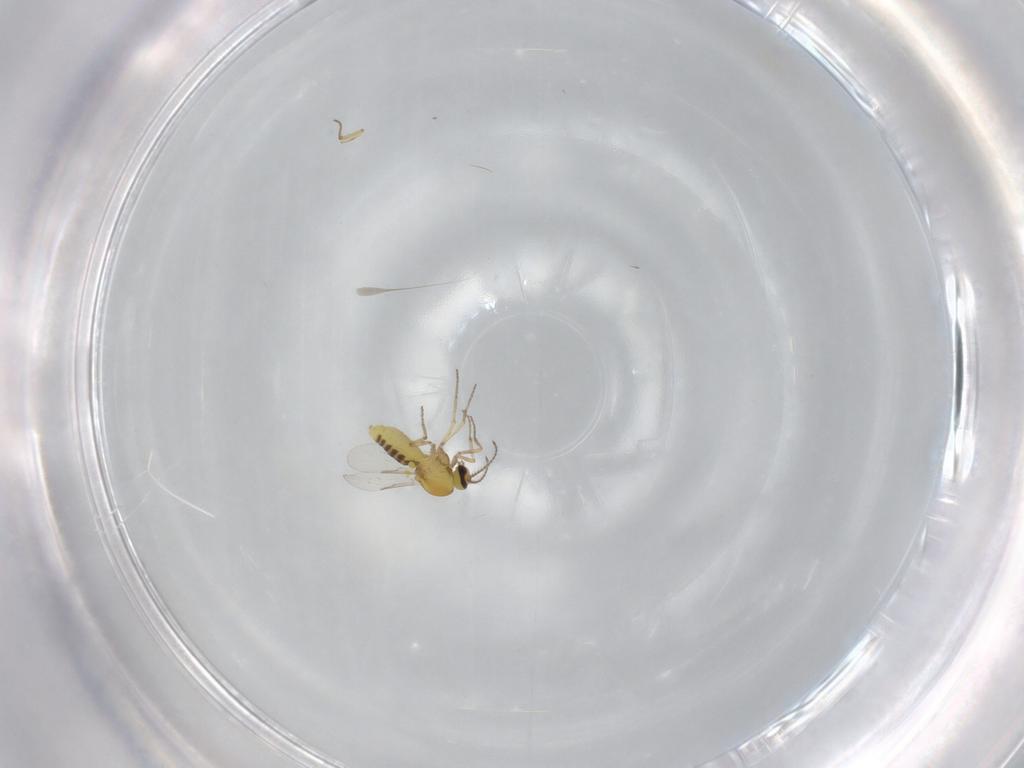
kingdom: Animalia
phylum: Arthropoda
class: Insecta
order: Diptera
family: Ceratopogonidae
